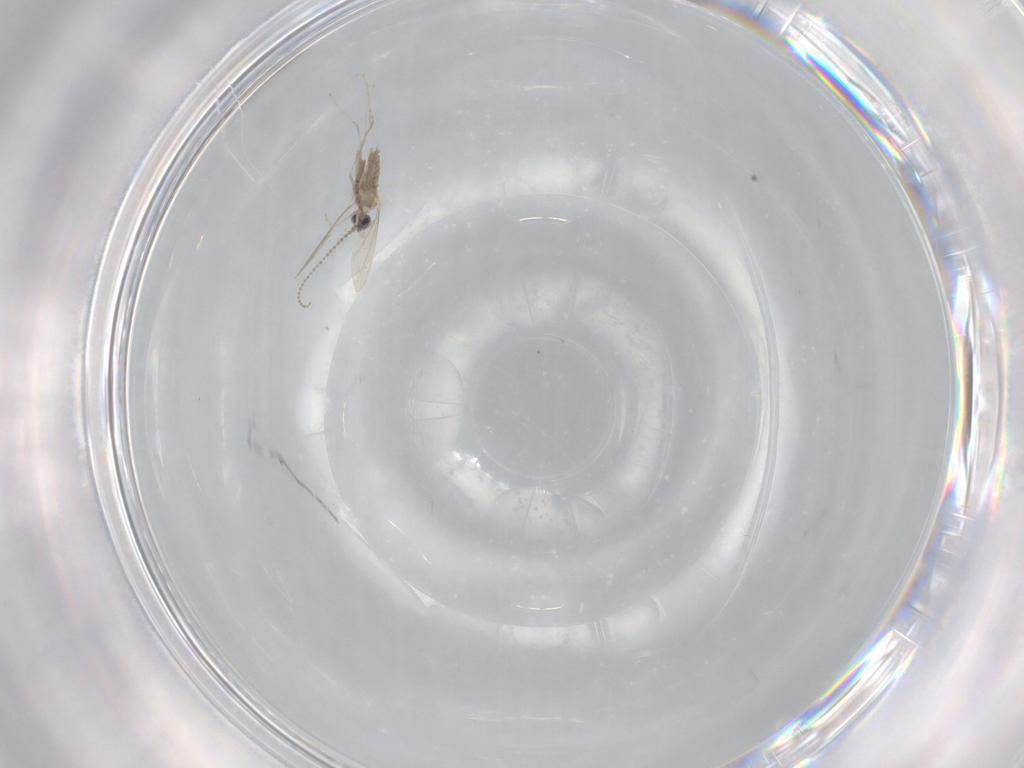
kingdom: Animalia
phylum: Arthropoda
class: Insecta
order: Diptera
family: Cecidomyiidae
